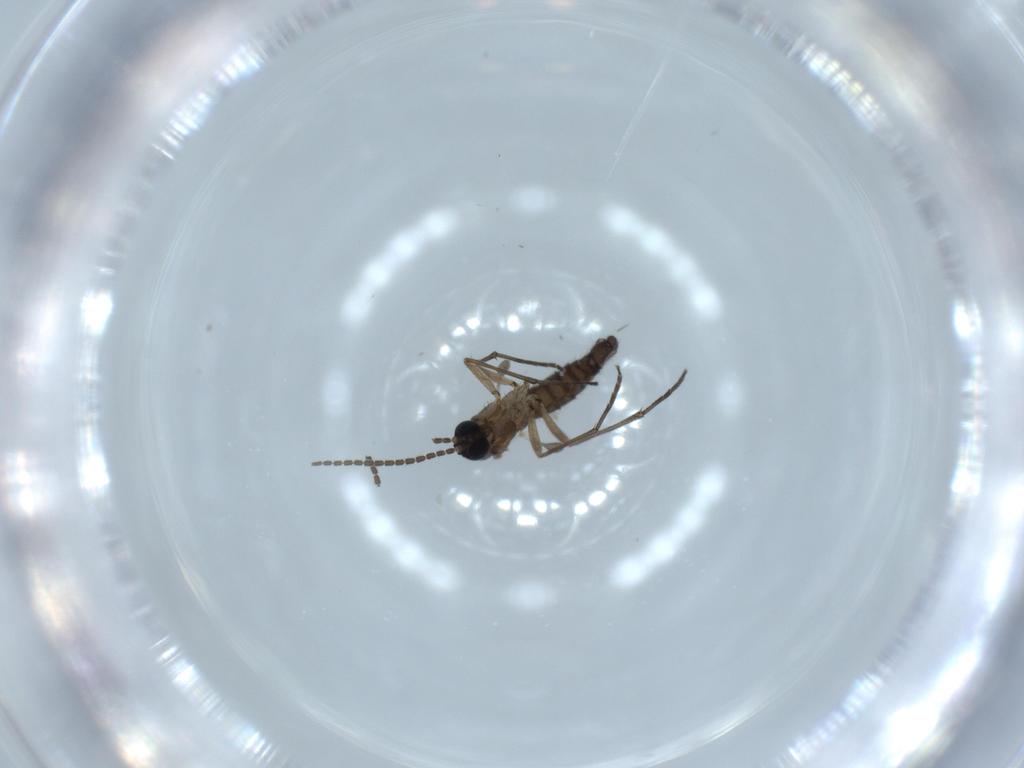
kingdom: Animalia
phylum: Arthropoda
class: Insecta
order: Diptera
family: Sciaridae
